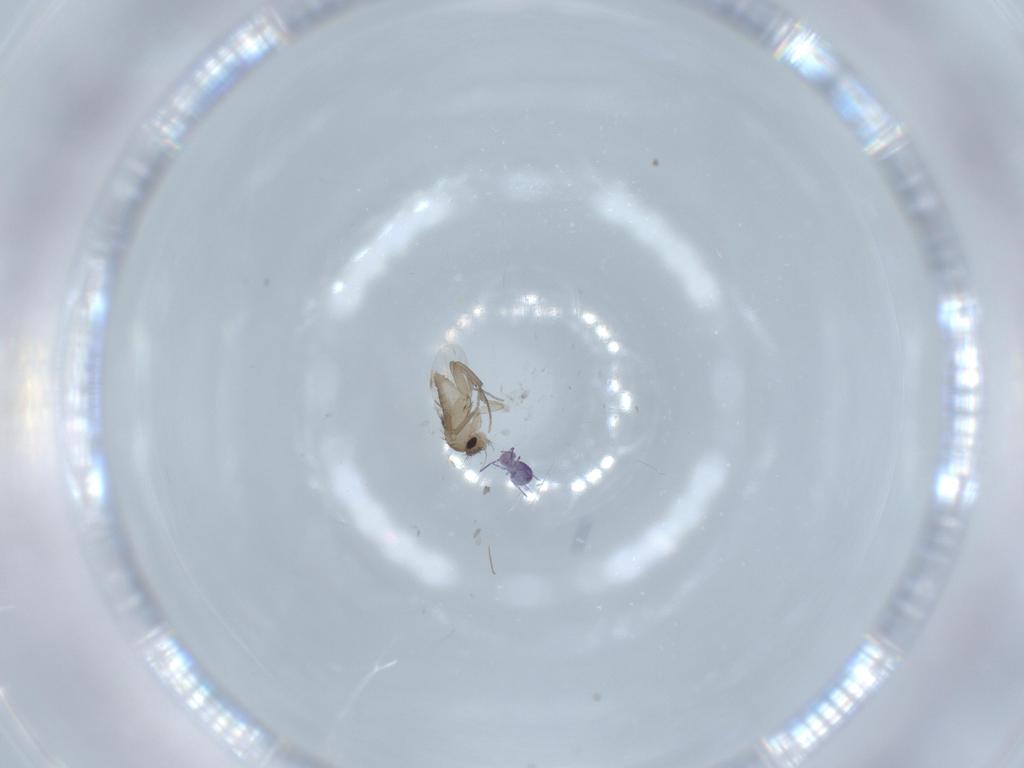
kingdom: Animalia
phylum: Arthropoda
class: Insecta
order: Diptera
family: Phoridae
